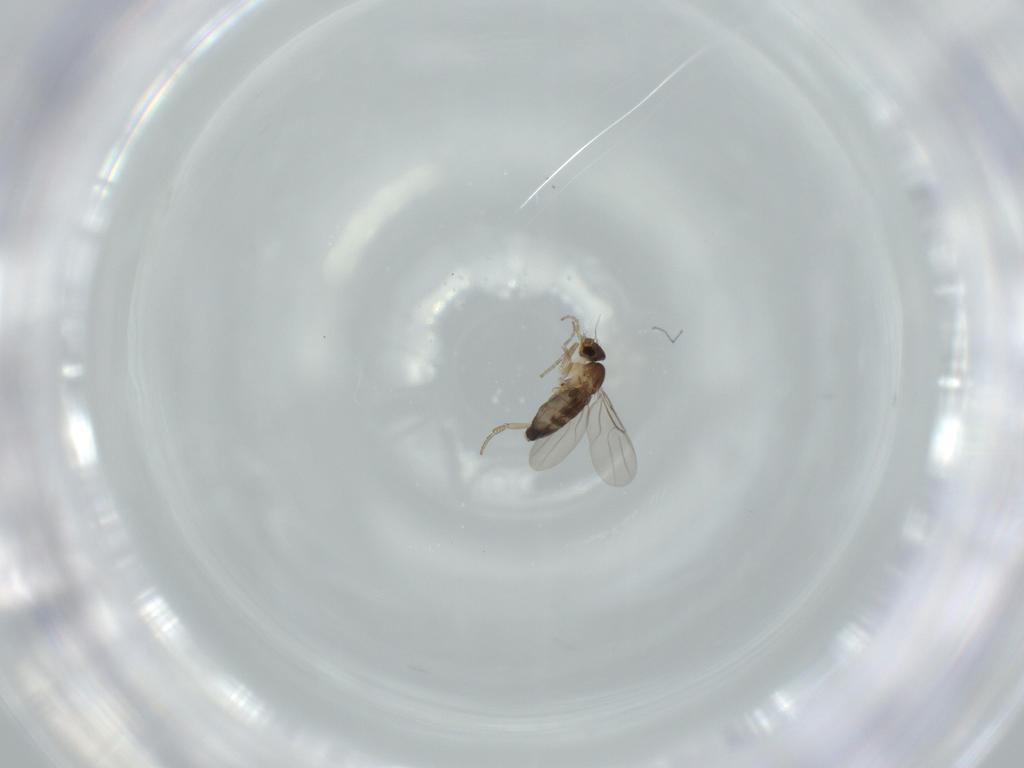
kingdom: Animalia
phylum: Arthropoda
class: Insecta
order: Diptera
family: Phoridae
